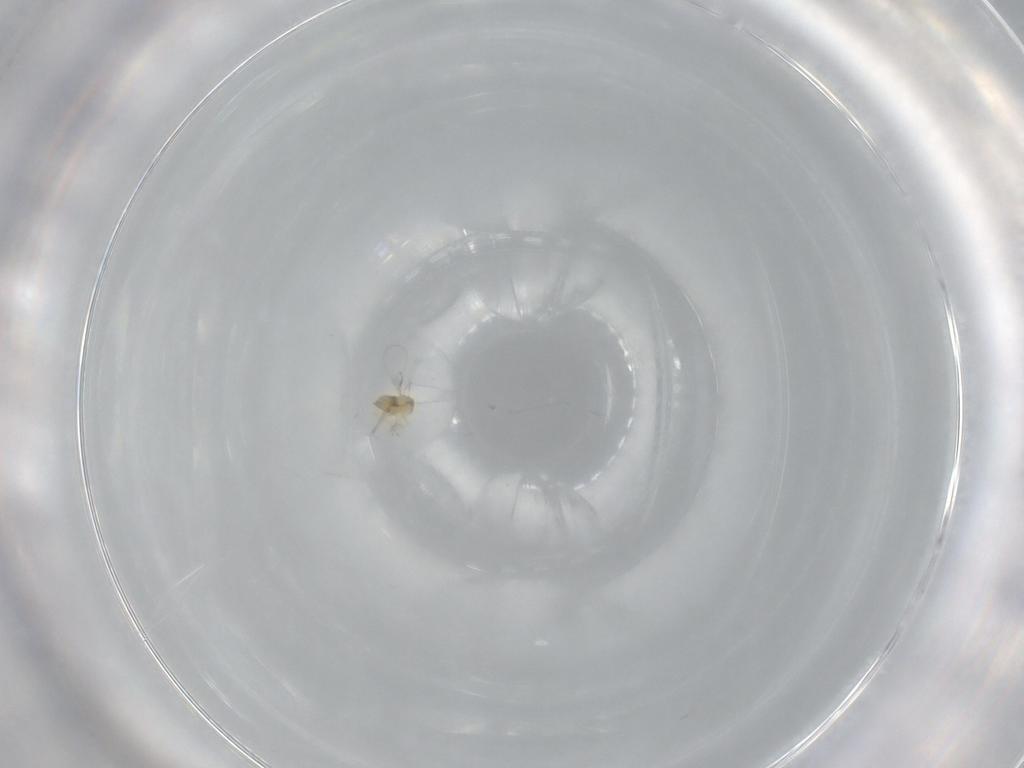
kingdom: Animalia
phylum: Arthropoda
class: Insecta
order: Hymenoptera
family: Trichogrammatidae
